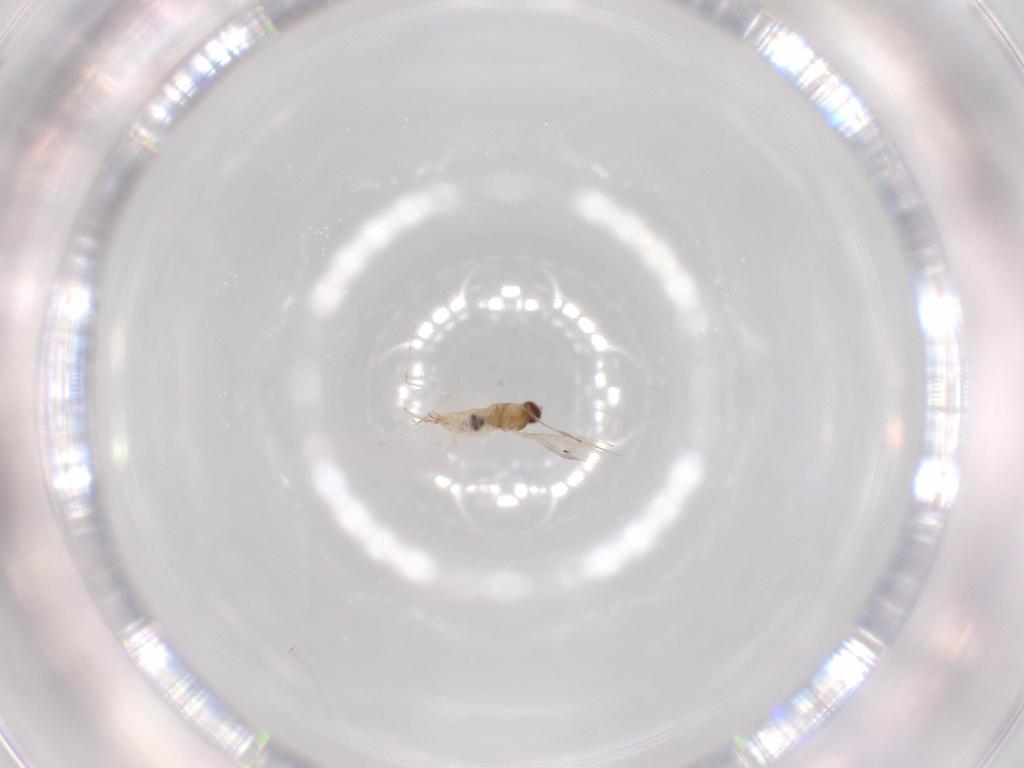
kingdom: Animalia
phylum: Arthropoda
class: Insecta
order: Diptera
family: Cecidomyiidae
